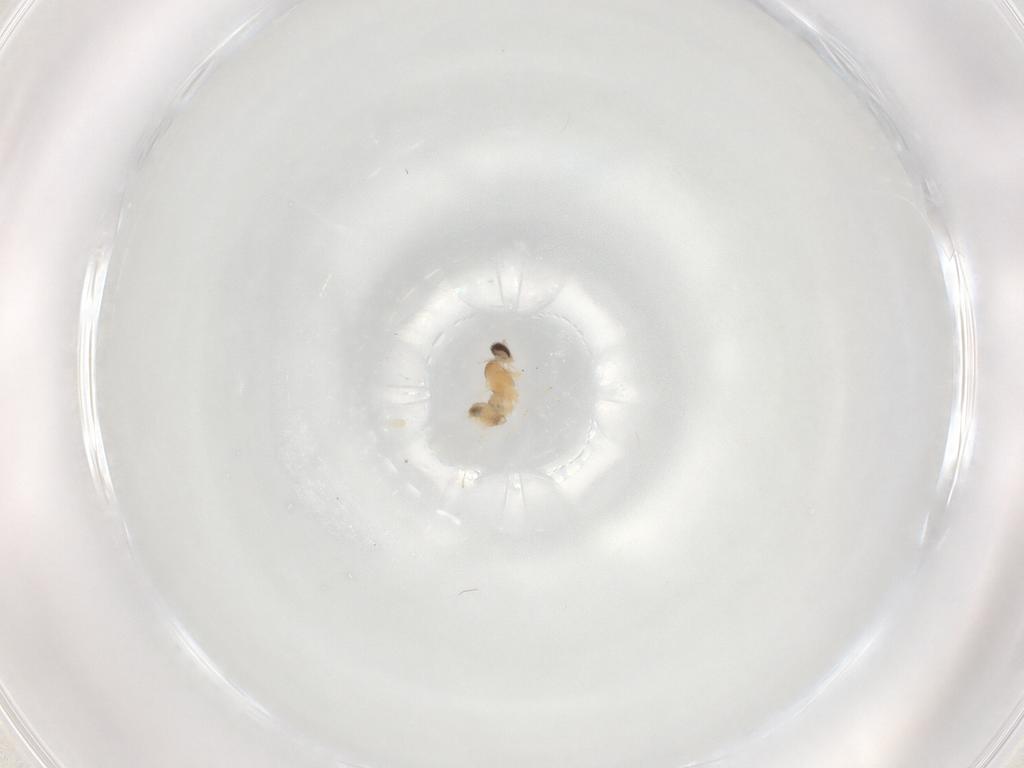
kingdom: Animalia
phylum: Arthropoda
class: Insecta
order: Diptera
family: Cecidomyiidae
